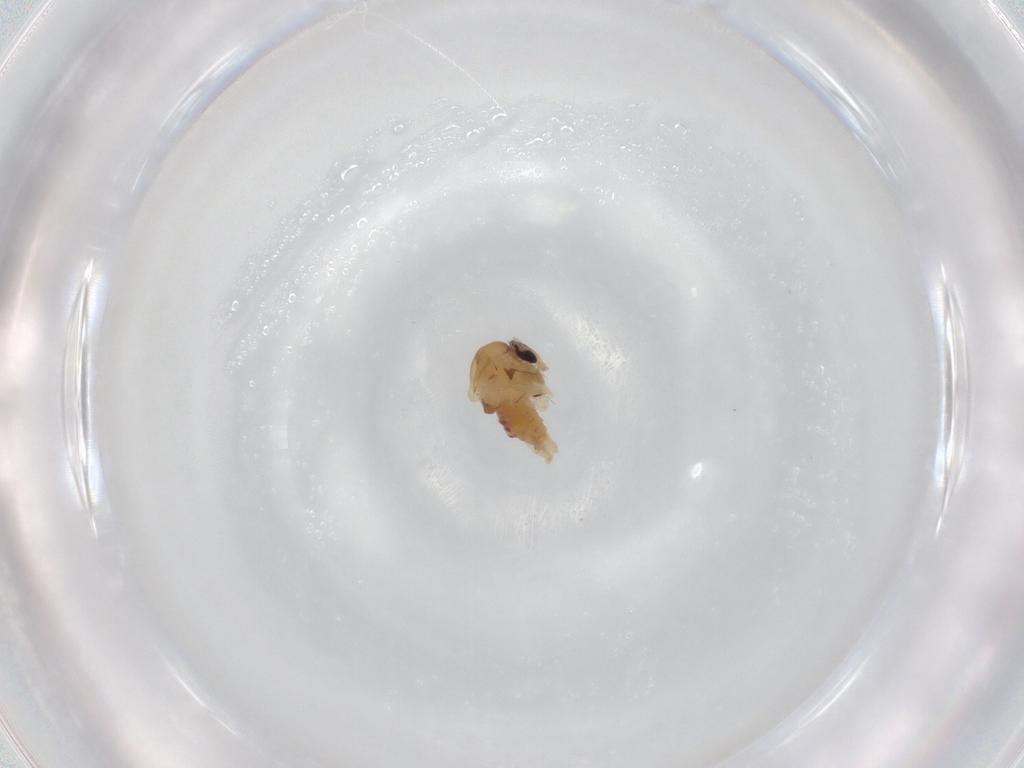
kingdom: Animalia
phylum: Arthropoda
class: Insecta
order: Diptera
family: Chironomidae
